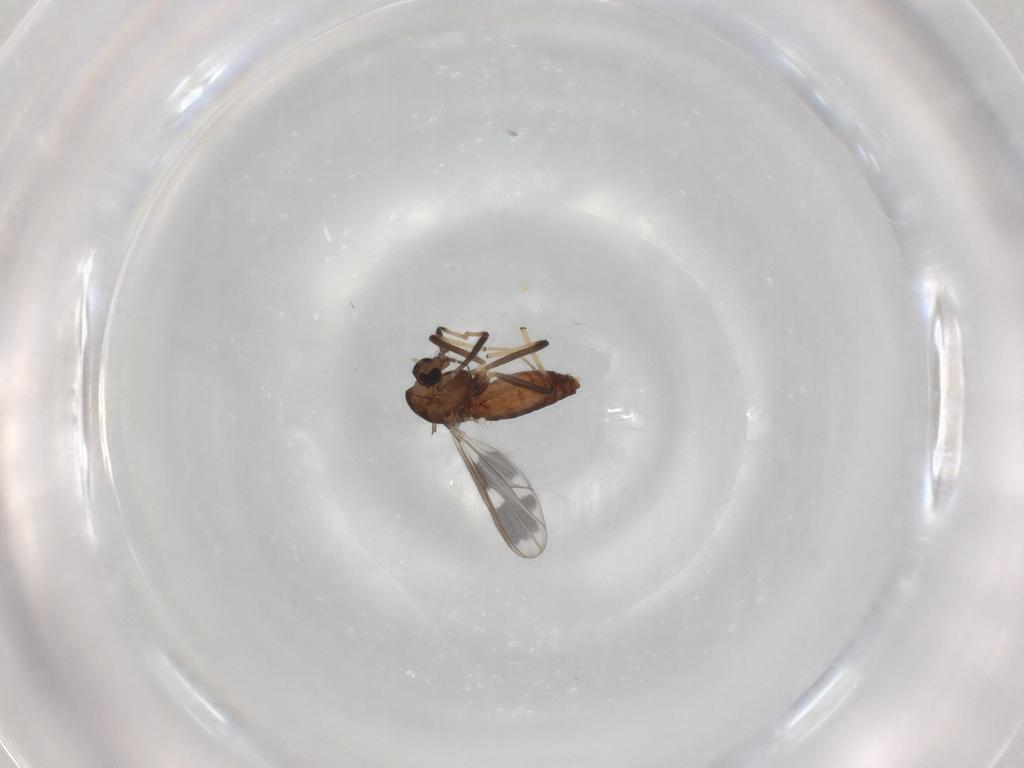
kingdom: Animalia
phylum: Arthropoda
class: Insecta
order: Diptera
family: Chironomidae
